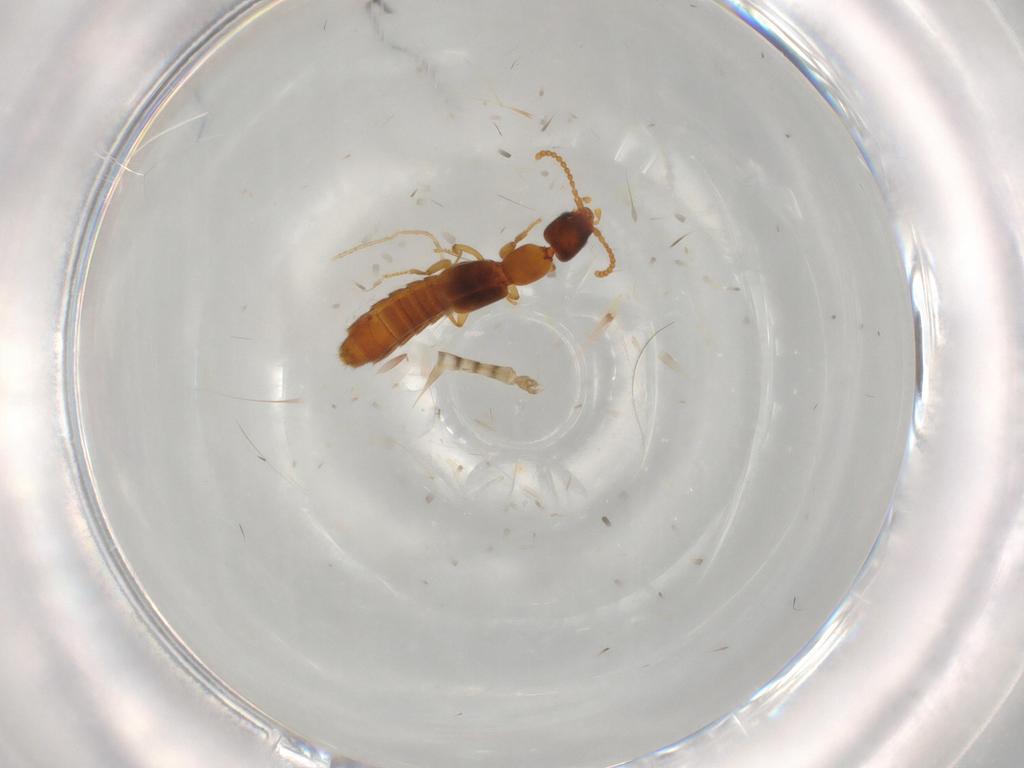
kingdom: Animalia
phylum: Arthropoda
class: Insecta
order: Coleoptera
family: Staphylinidae
